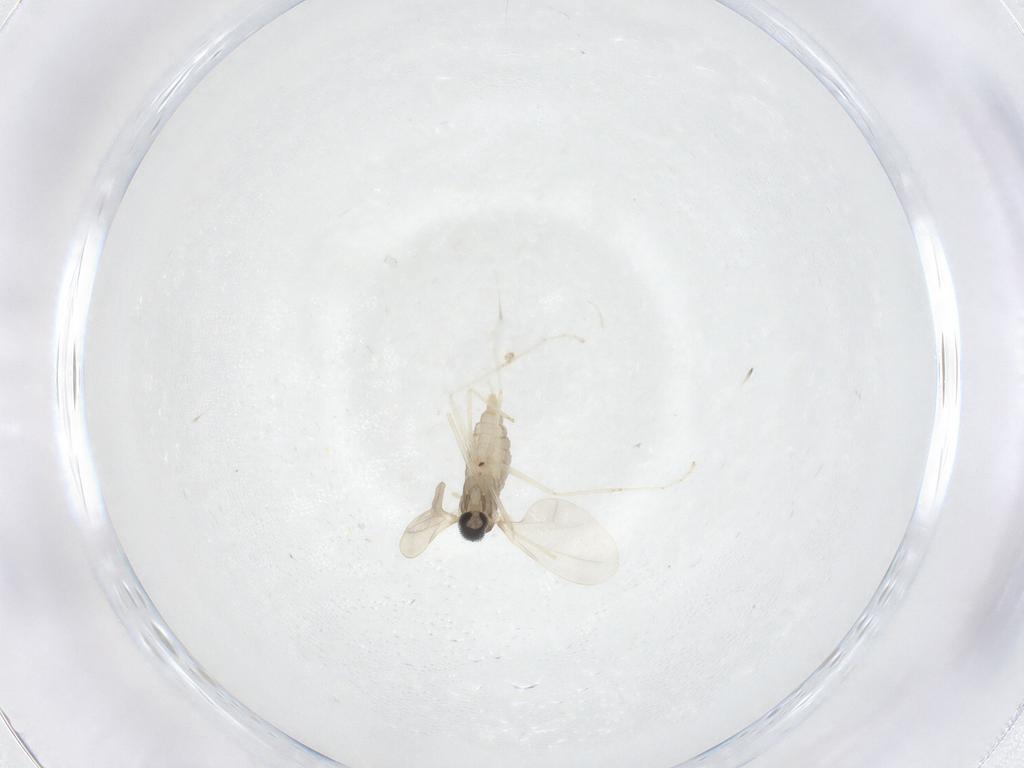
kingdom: Animalia
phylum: Arthropoda
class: Insecta
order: Diptera
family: Cecidomyiidae
